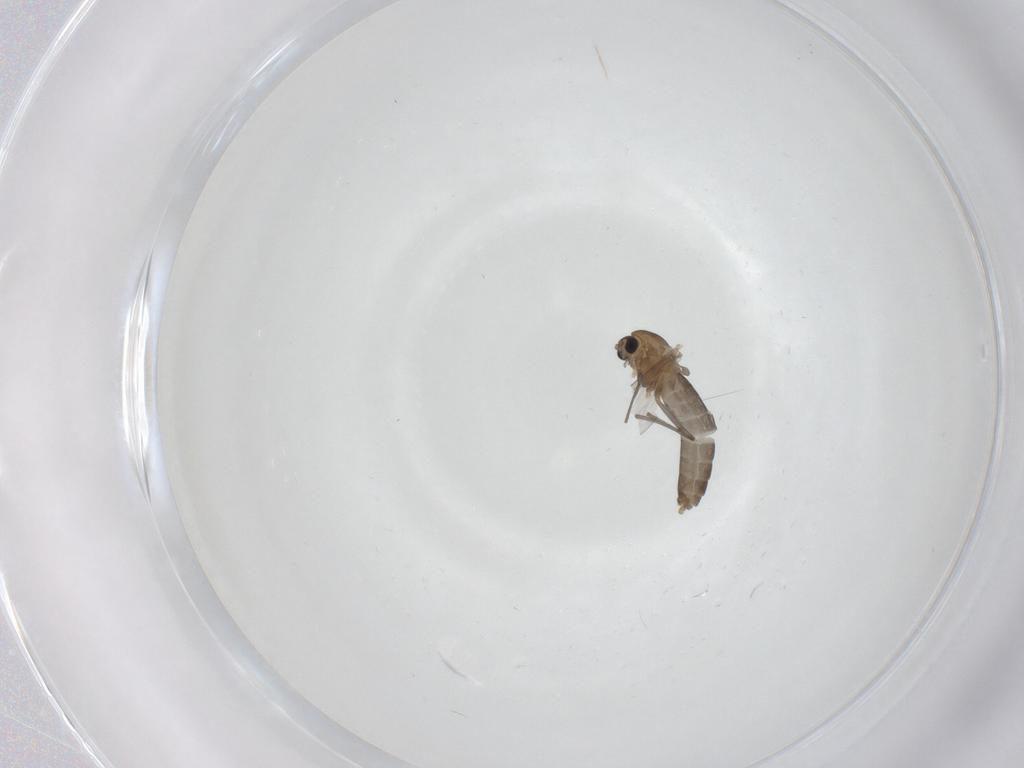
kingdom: Animalia
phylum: Arthropoda
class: Insecta
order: Diptera
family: Chironomidae
